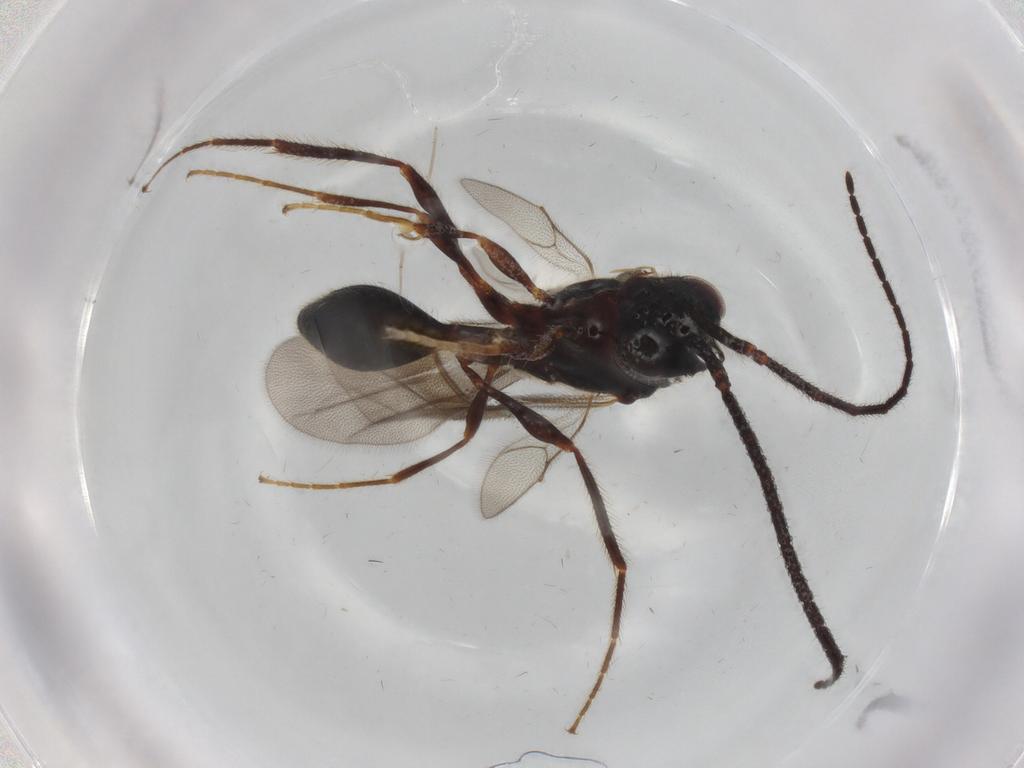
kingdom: Animalia
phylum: Arthropoda
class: Insecta
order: Hymenoptera
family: Diapriidae
